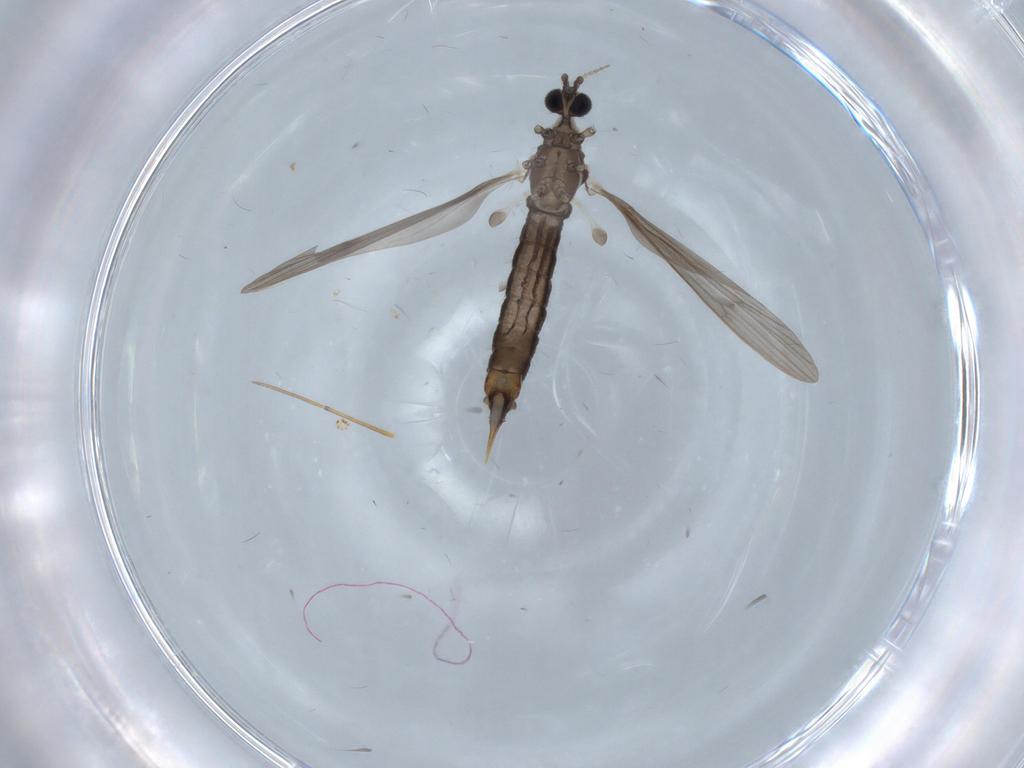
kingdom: Animalia
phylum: Arthropoda
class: Insecta
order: Diptera
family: Limoniidae
